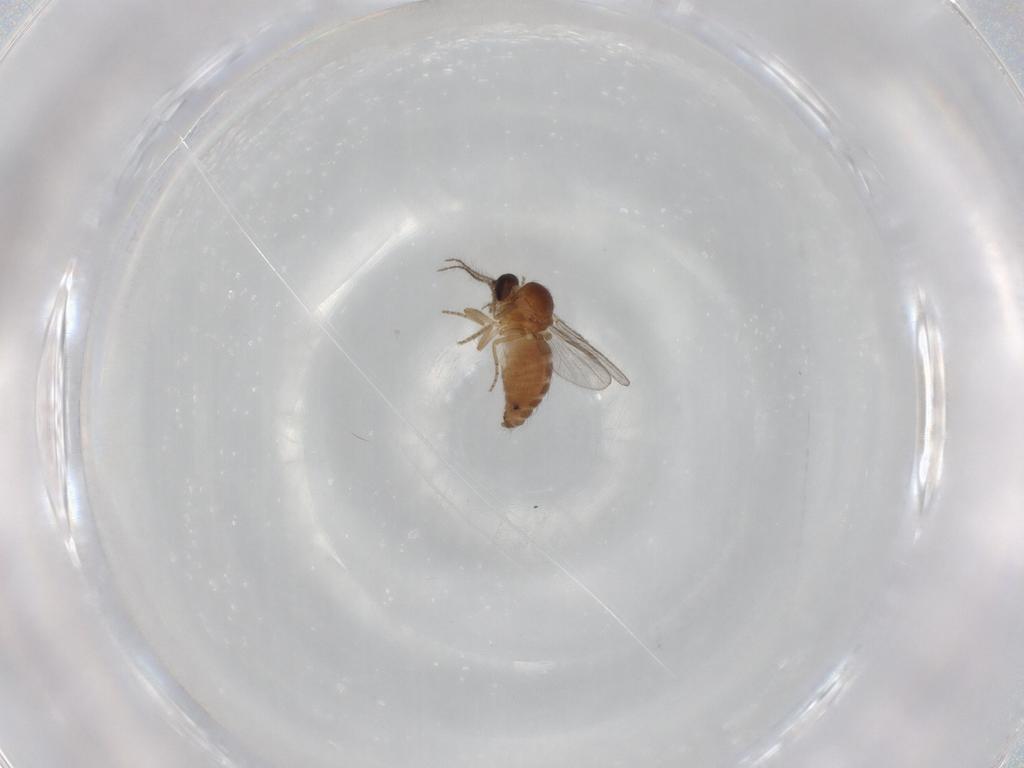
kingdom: Animalia
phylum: Arthropoda
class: Insecta
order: Diptera
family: Ceratopogonidae
